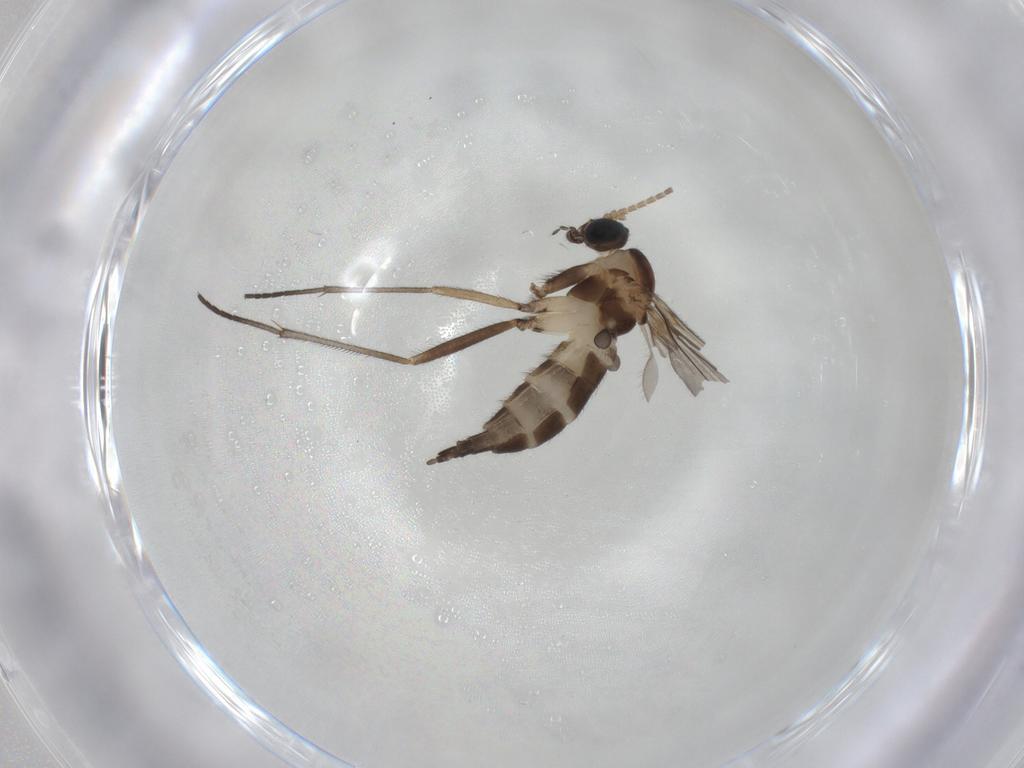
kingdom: Animalia
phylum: Arthropoda
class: Insecta
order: Diptera
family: Sciaridae
